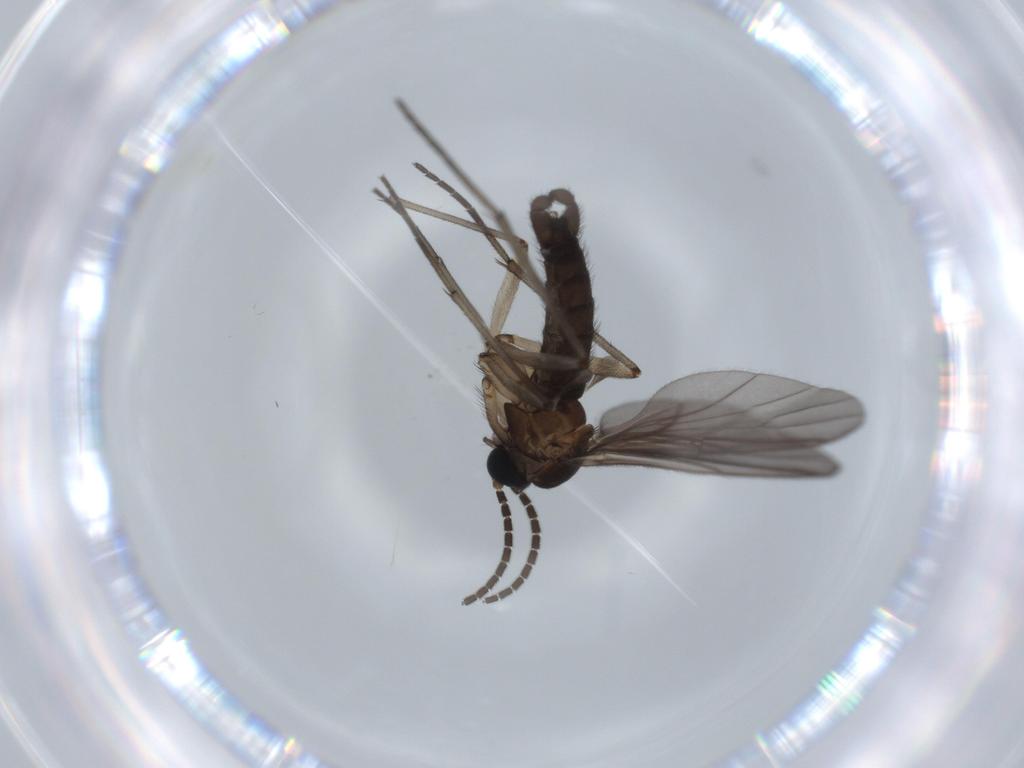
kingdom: Animalia
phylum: Arthropoda
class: Insecta
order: Diptera
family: Sciaridae
